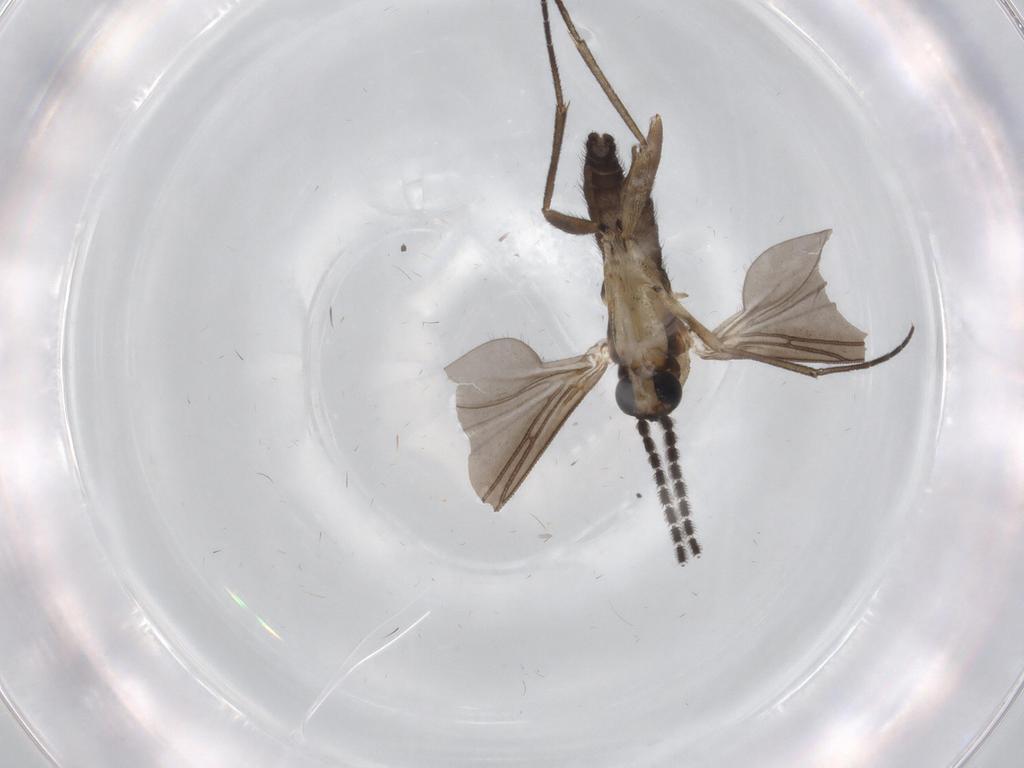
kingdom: Animalia
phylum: Arthropoda
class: Insecta
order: Diptera
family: Sciaridae
